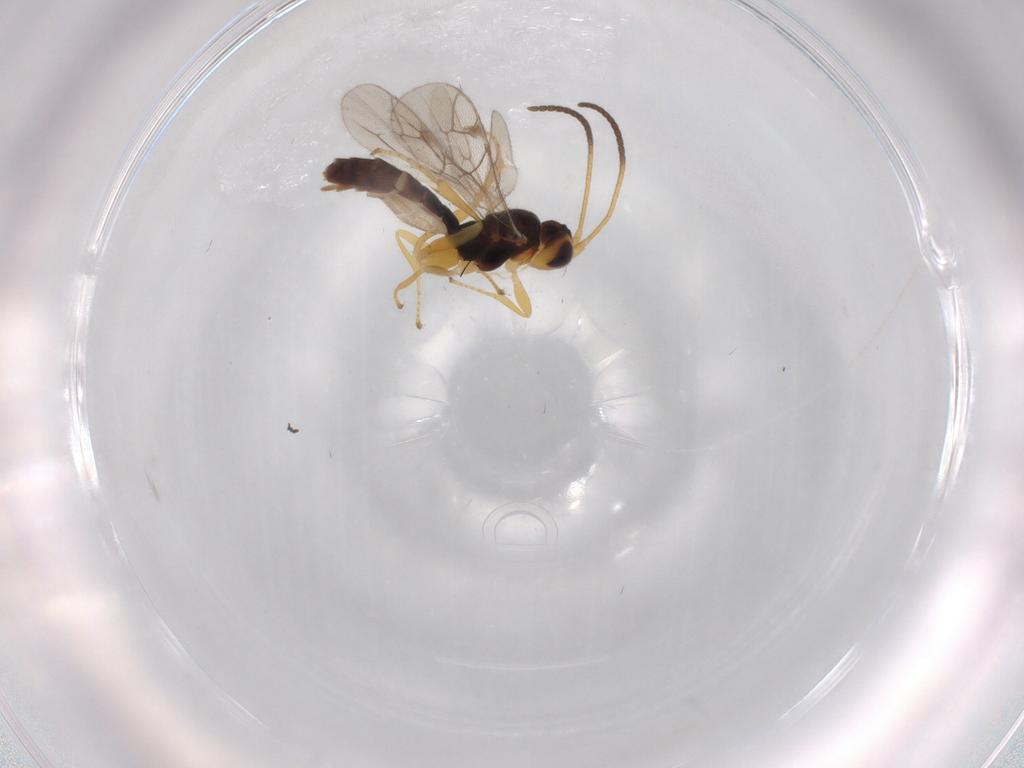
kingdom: Animalia
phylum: Arthropoda
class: Insecta
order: Hymenoptera
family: Ichneumonidae
